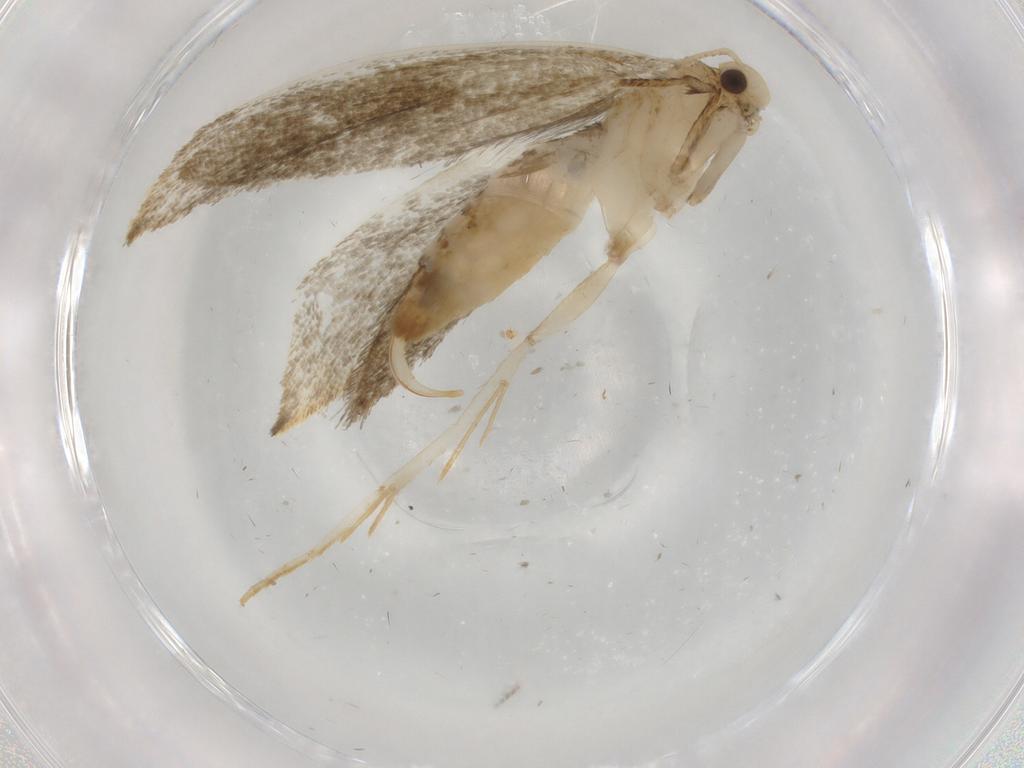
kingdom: Animalia
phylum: Arthropoda
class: Insecta
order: Lepidoptera
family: Pieridae
